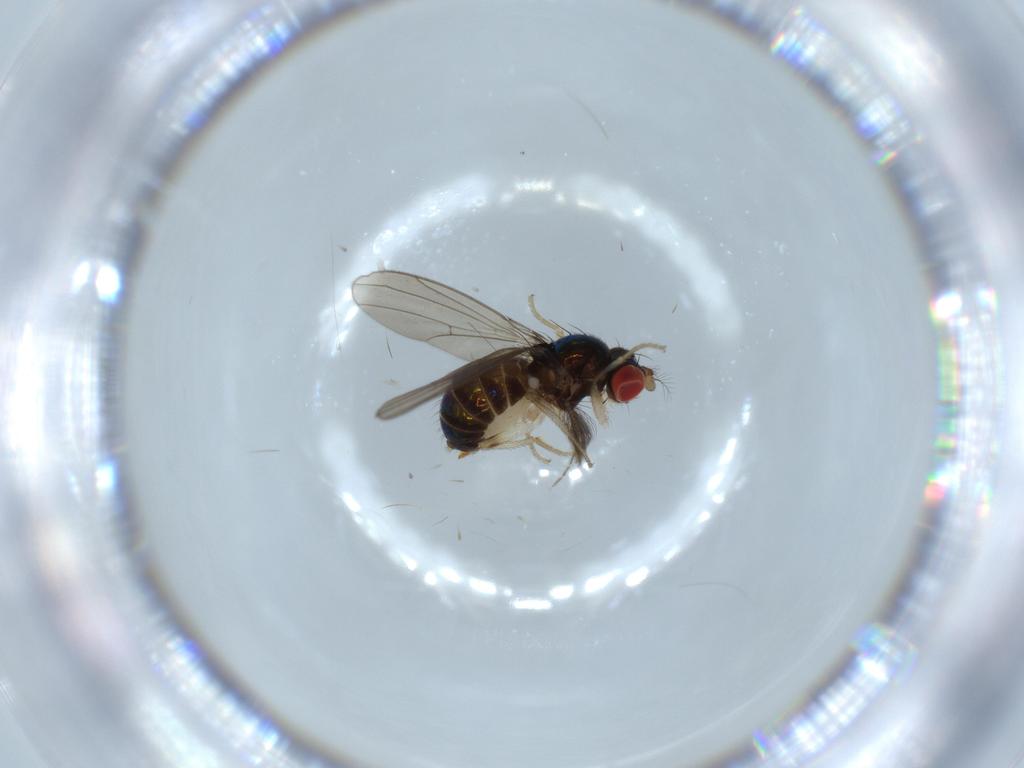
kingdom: Animalia
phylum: Arthropoda
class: Insecta
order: Diptera
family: Drosophilidae
